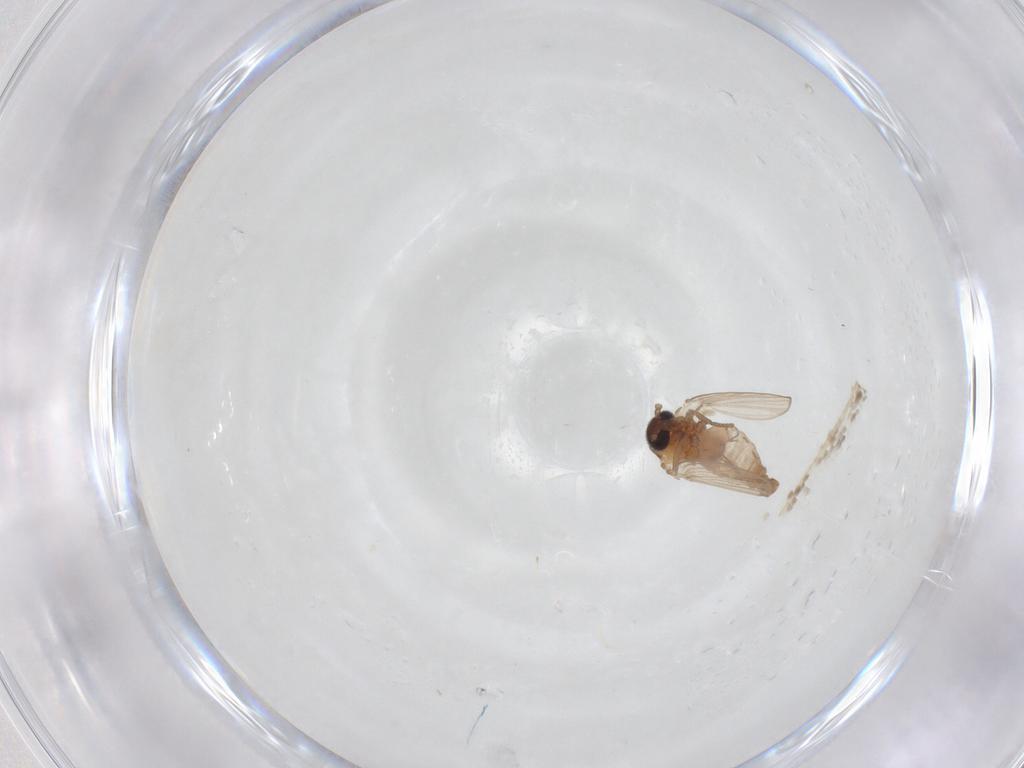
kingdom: Animalia
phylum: Arthropoda
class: Insecta
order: Diptera
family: Psychodidae
